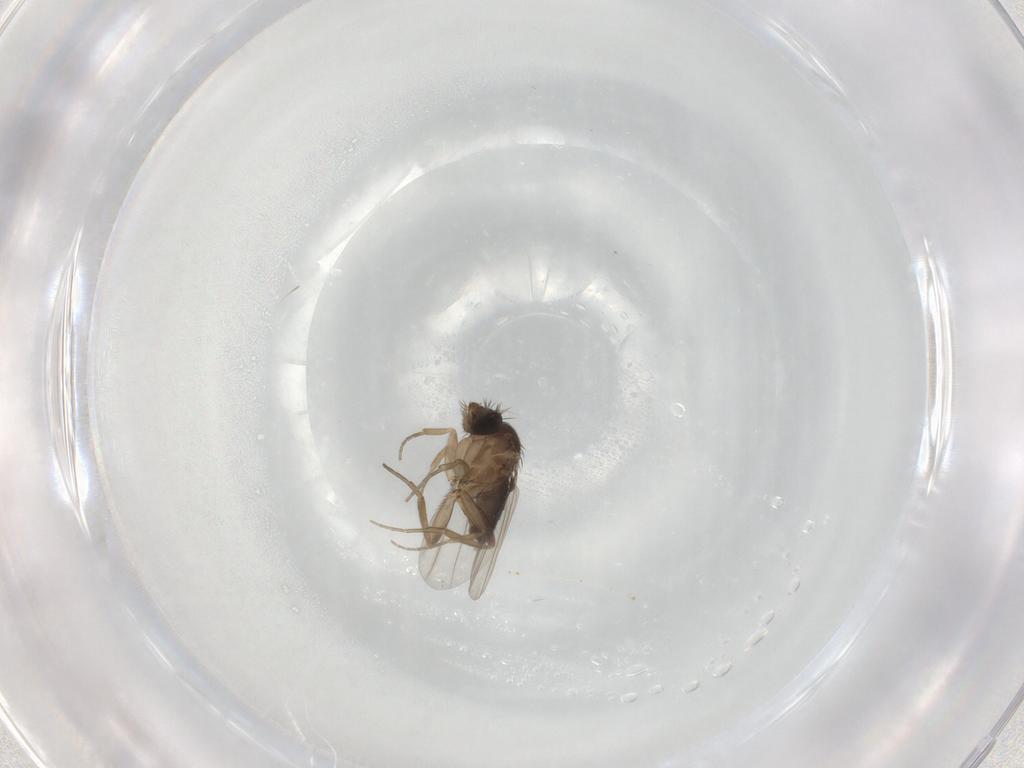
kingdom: Animalia
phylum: Arthropoda
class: Insecta
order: Diptera
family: Phoridae
